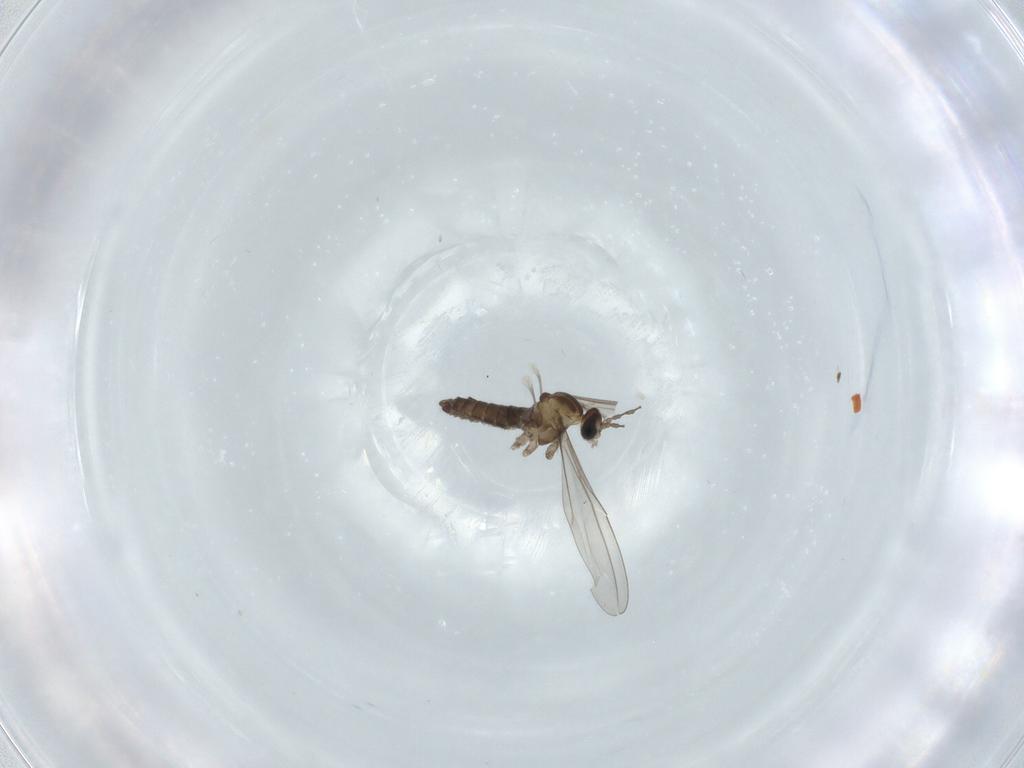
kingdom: Animalia
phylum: Arthropoda
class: Insecta
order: Diptera
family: Cecidomyiidae
